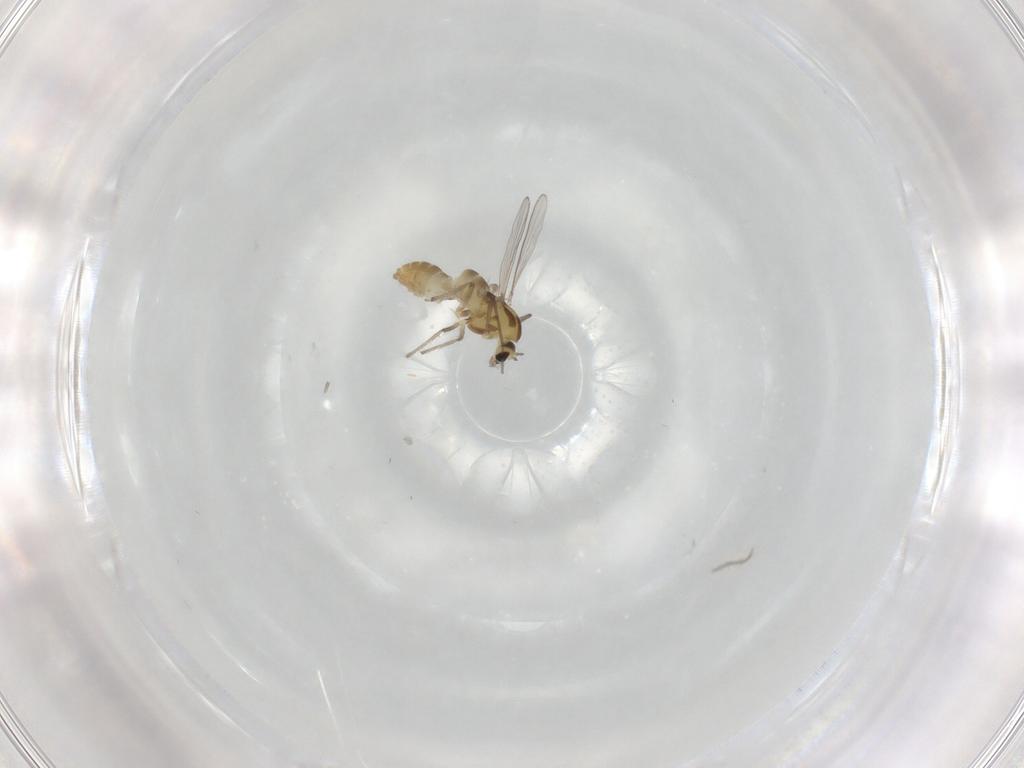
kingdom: Animalia
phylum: Arthropoda
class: Insecta
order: Diptera
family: Chironomidae
